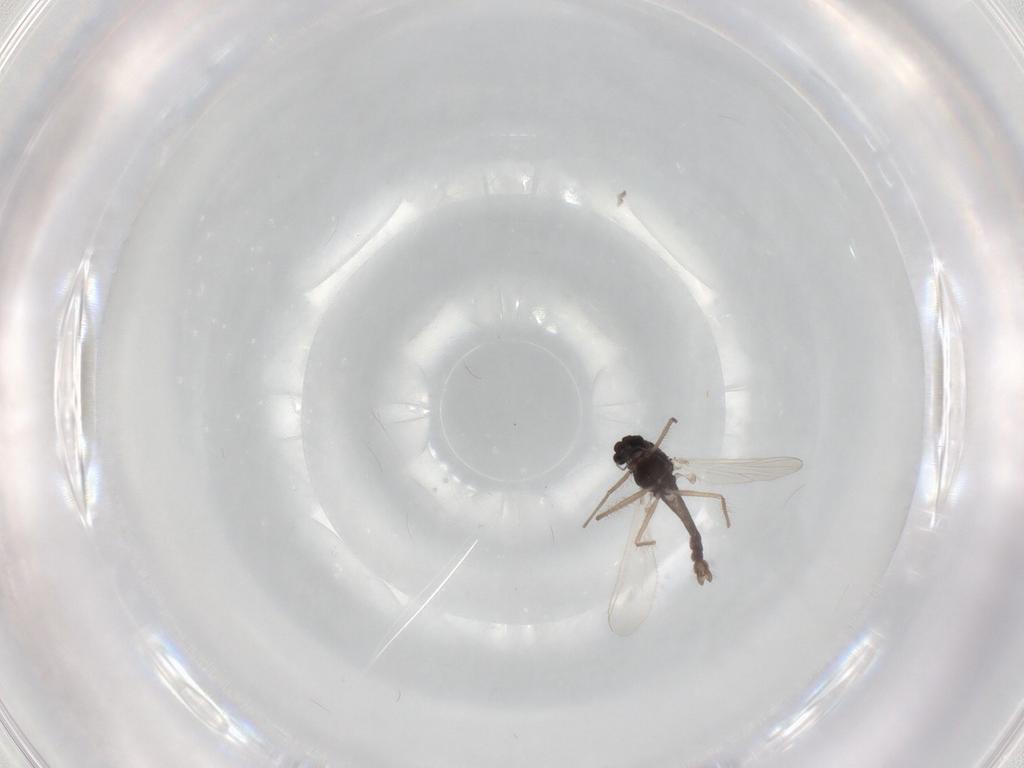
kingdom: Animalia
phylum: Arthropoda
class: Insecta
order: Diptera
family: Chironomidae
